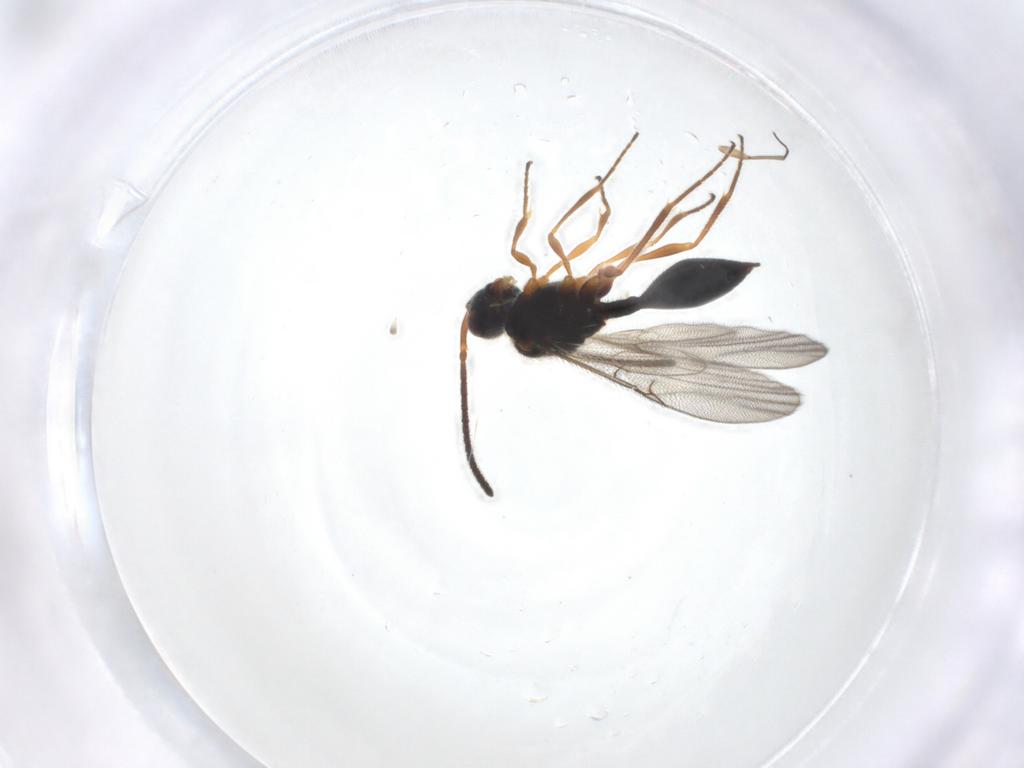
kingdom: Animalia
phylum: Arthropoda
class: Insecta
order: Hymenoptera
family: Diapriidae
